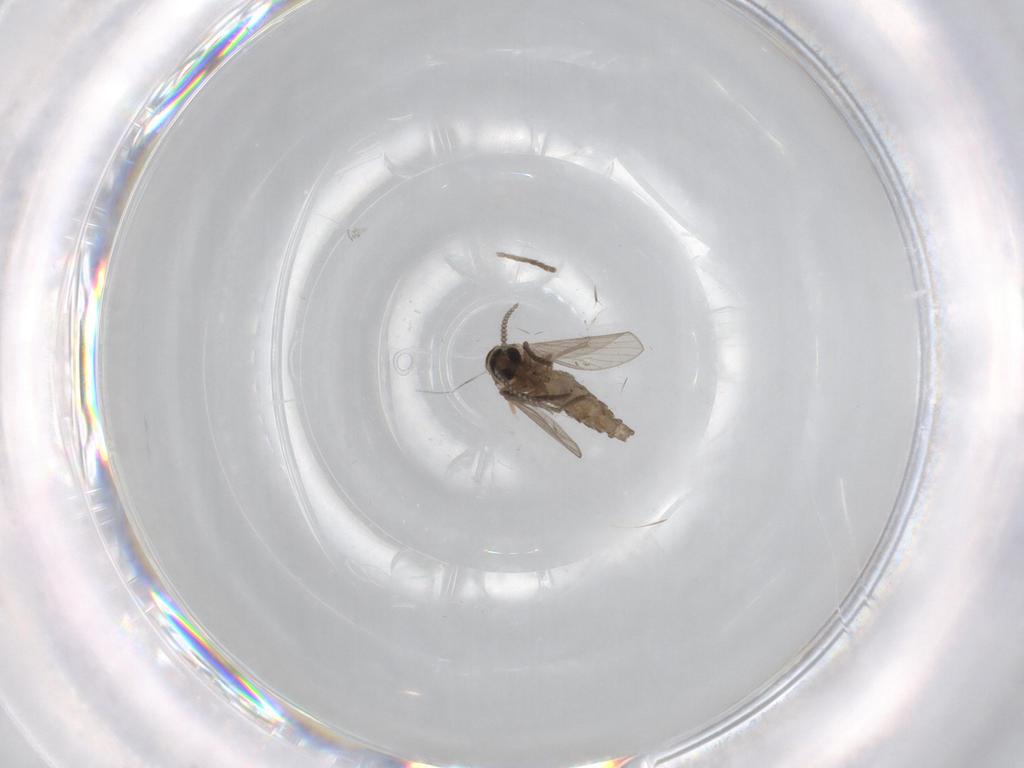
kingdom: Animalia
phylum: Arthropoda
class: Insecta
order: Diptera
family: Psychodidae
